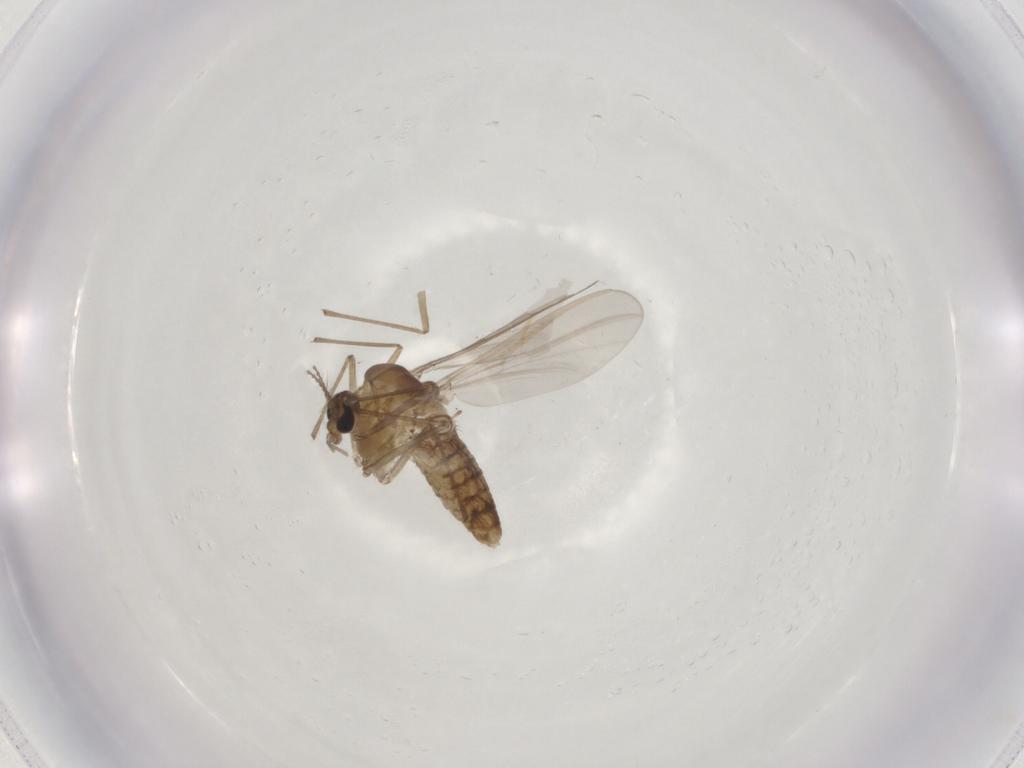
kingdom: Animalia
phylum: Arthropoda
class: Insecta
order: Diptera
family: Chironomidae
